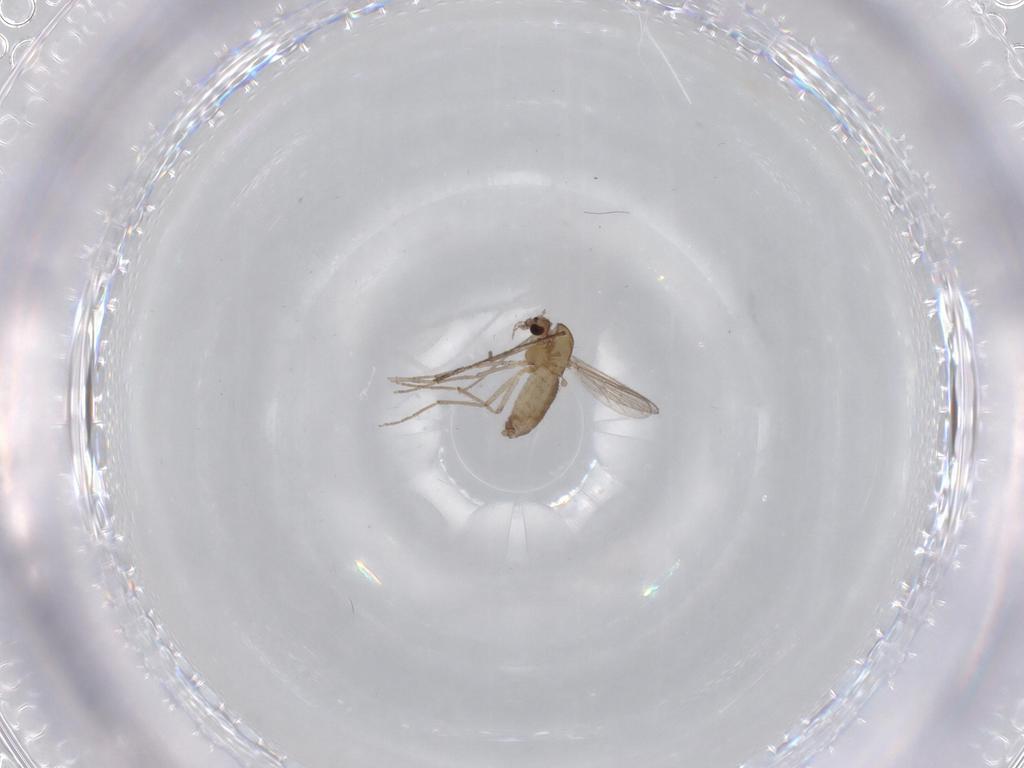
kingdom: Animalia
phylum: Arthropoda
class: Insecta
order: Diptera
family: Chironomidae
